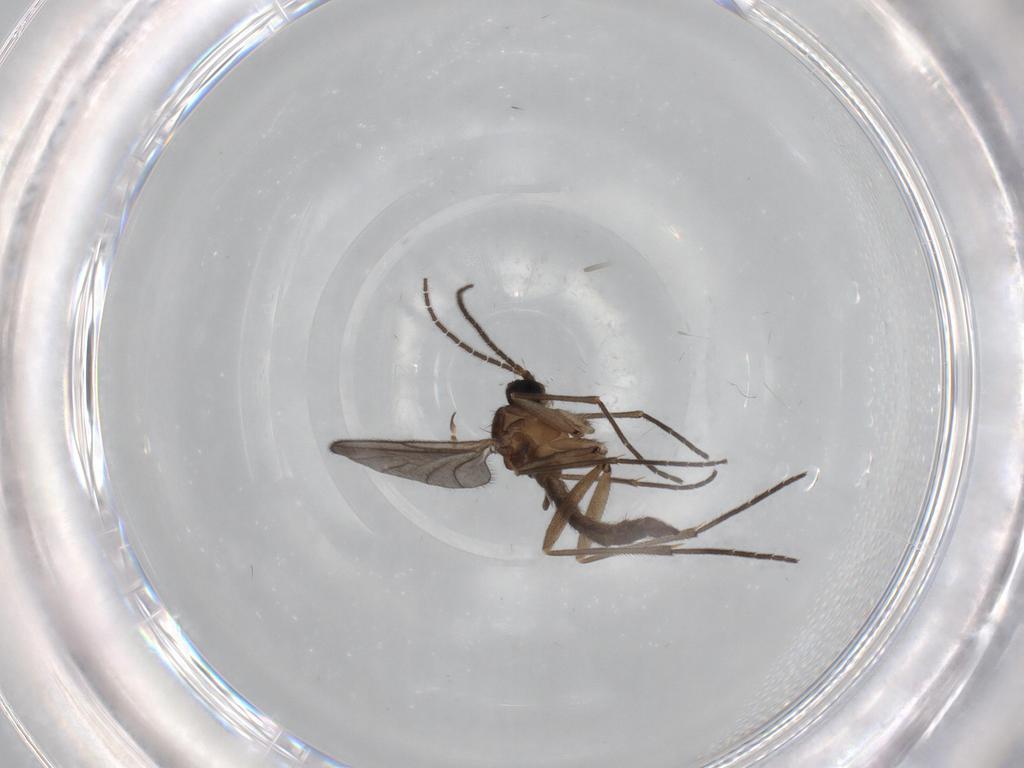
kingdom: Animalia
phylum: Arthropoda
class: Insecta
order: Diptera
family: Sciaridae
